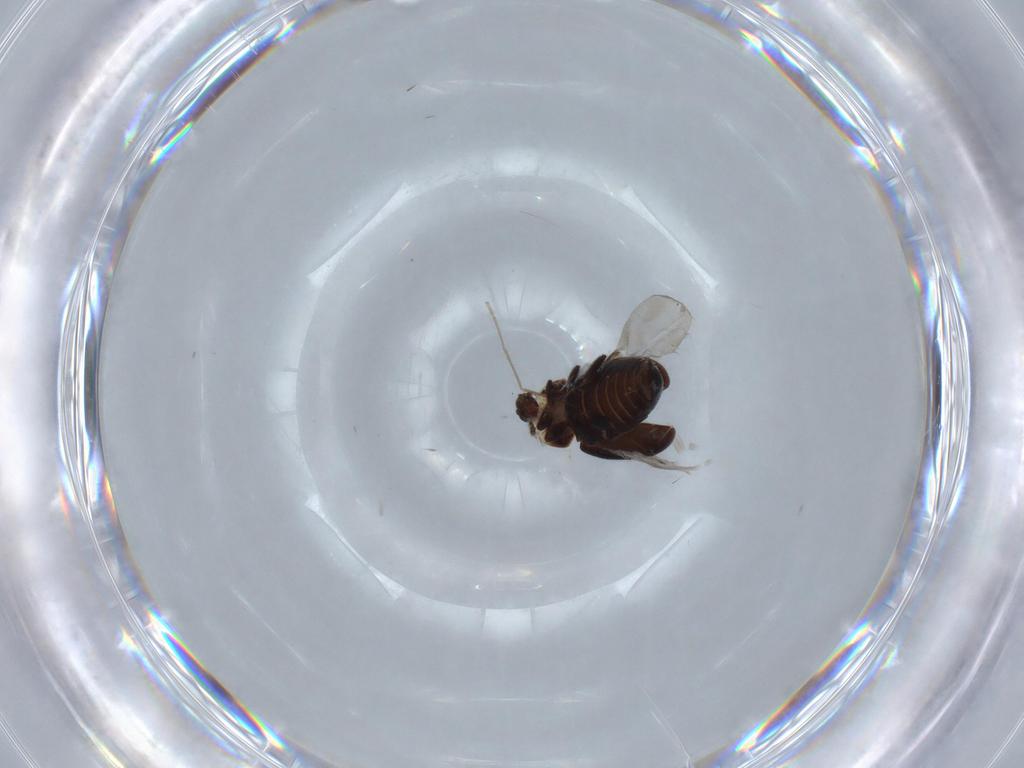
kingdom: Animalia
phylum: Arthropoda
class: Insecta
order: Coleoptera
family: Corylophidae
